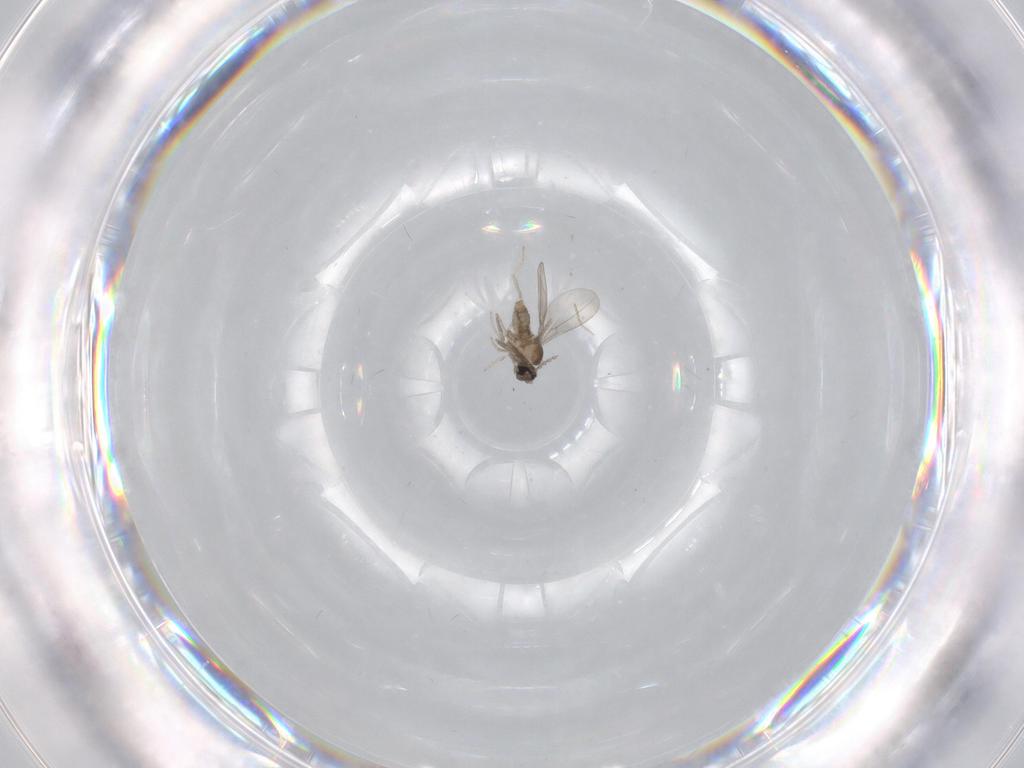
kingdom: Animalia
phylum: Arthropoda
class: Insecta
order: Diptera
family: Cecidomyiidae
